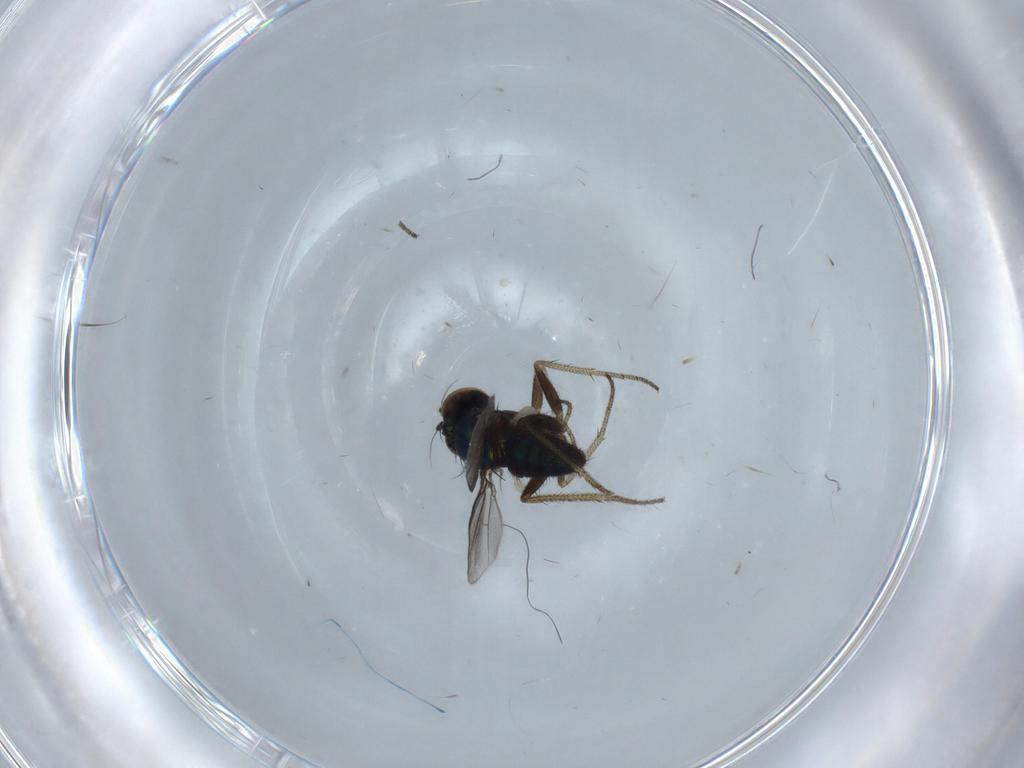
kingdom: Animalia
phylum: Arthropoda
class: Insecta
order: Diptera
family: Dolichopodidae
